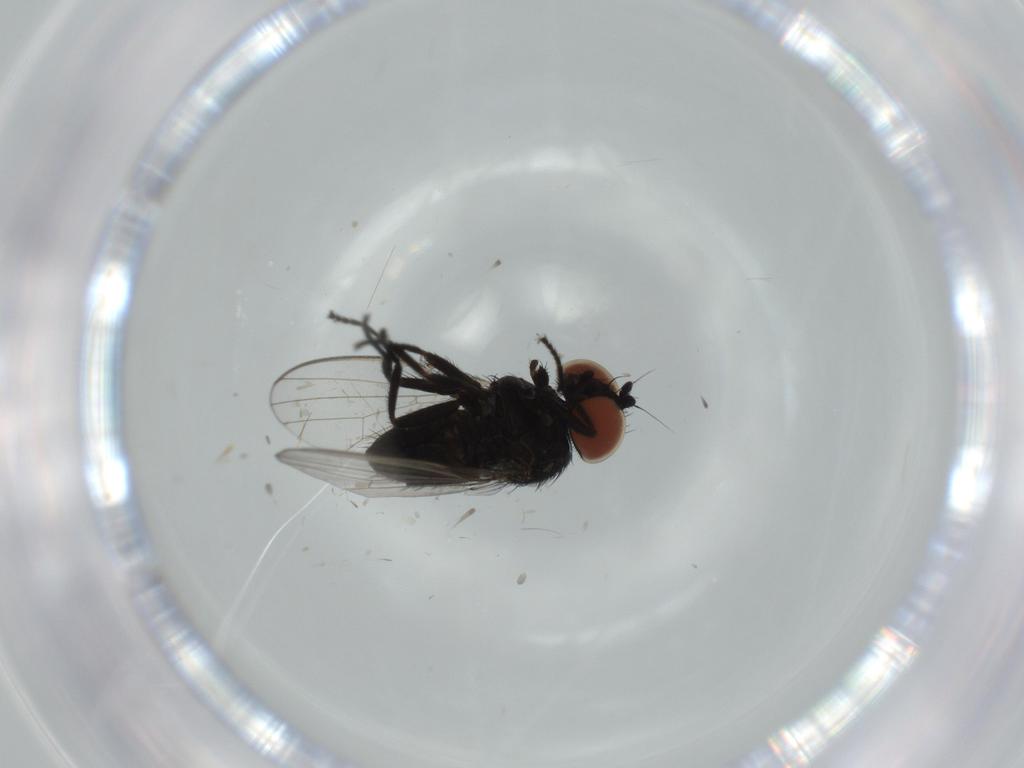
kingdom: Animalia
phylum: Arthropoda
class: Insecta
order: Diptera
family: Milichiidae
